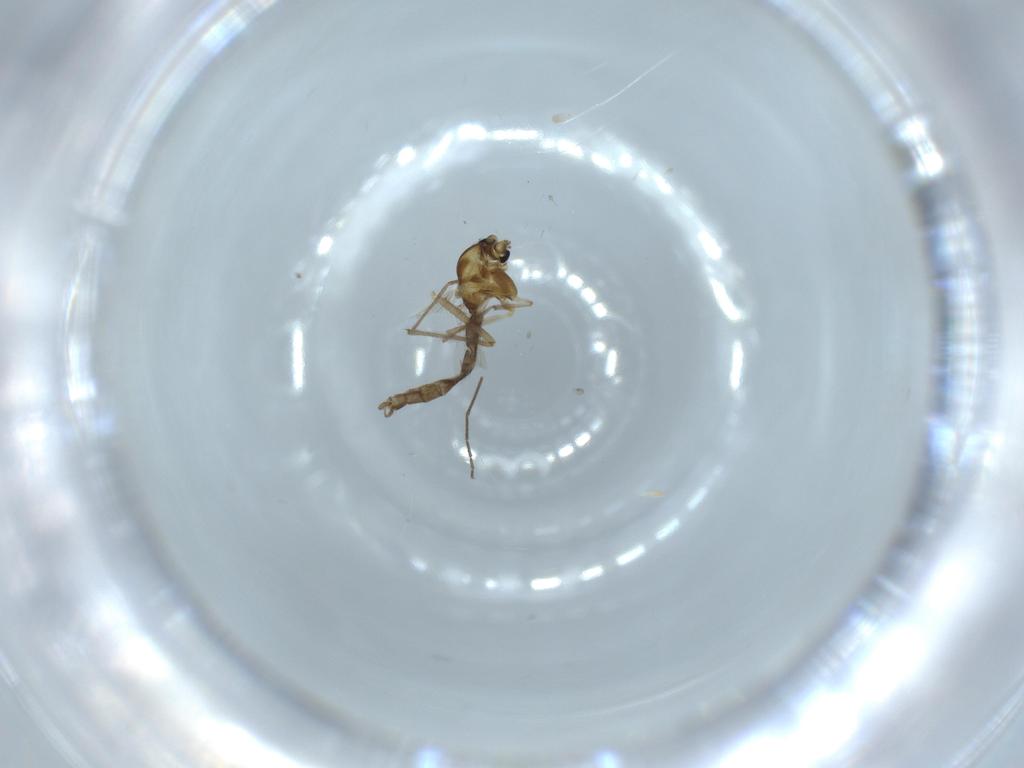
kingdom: Animalia
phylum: Arthropoda
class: Insecta
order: Diptera
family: Chironomidae
